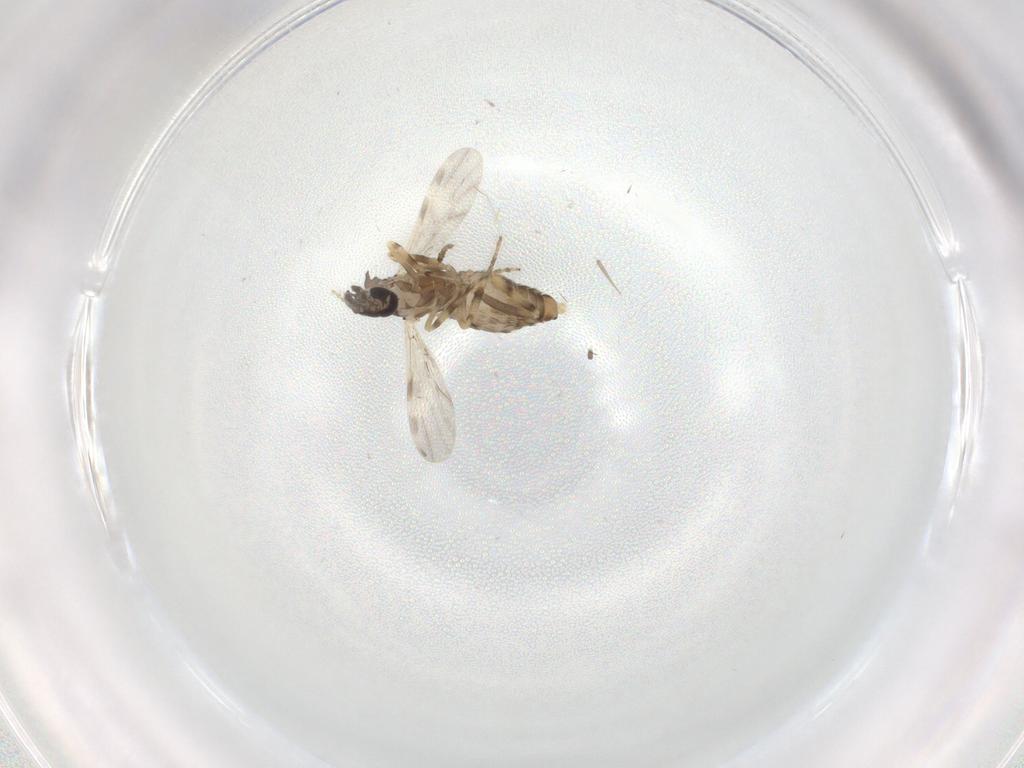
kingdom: Animalia
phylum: Arthropoda
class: Insecta
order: Diptera
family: Ceratopogonidae
